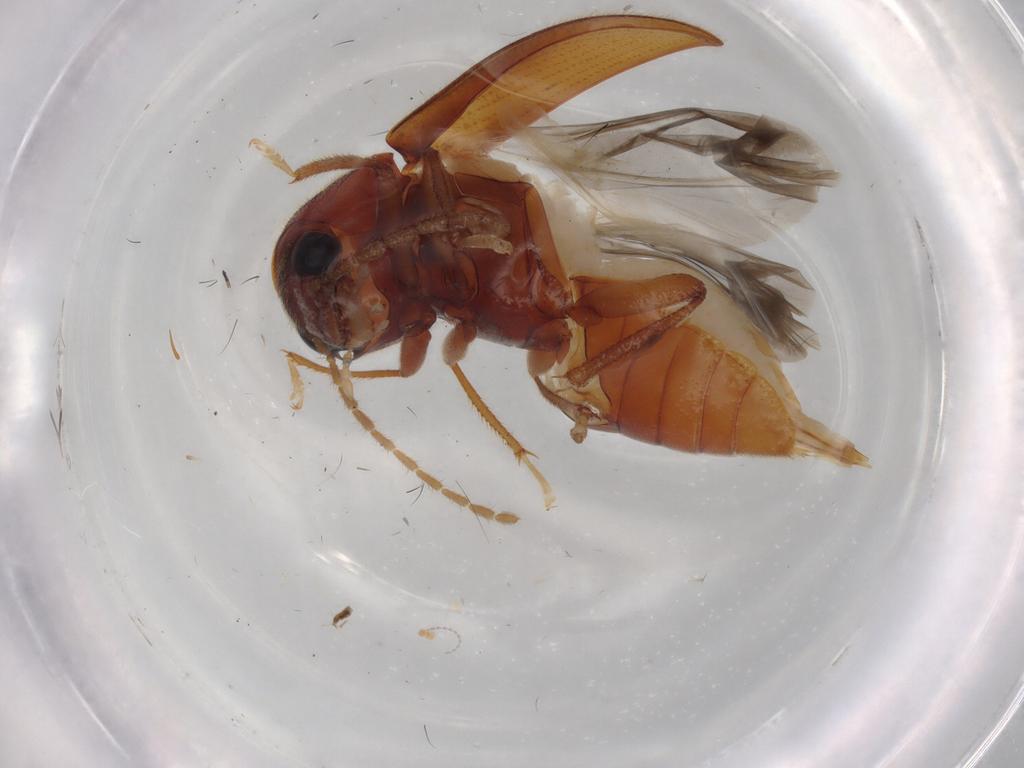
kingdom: Animalia
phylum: Arthropoda
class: Insecta
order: Coleoptera
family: Ptilodactylidae
